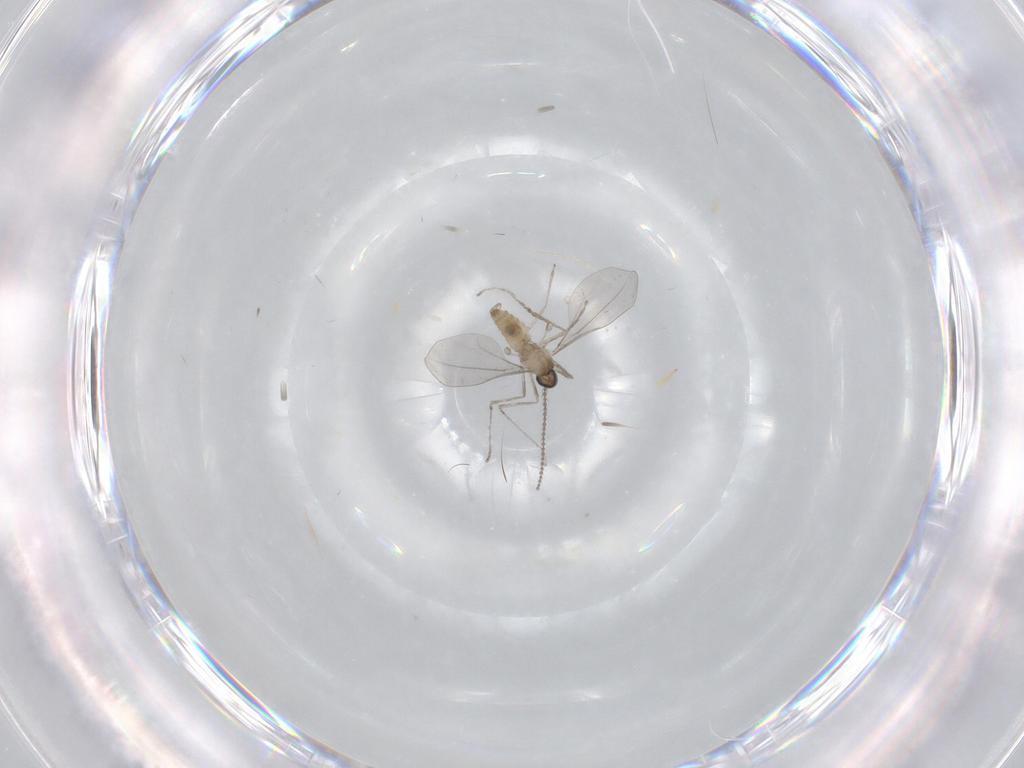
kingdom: Animalia
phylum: Arthropoda
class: Insecta
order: Diptera
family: Cecidomyiidae
